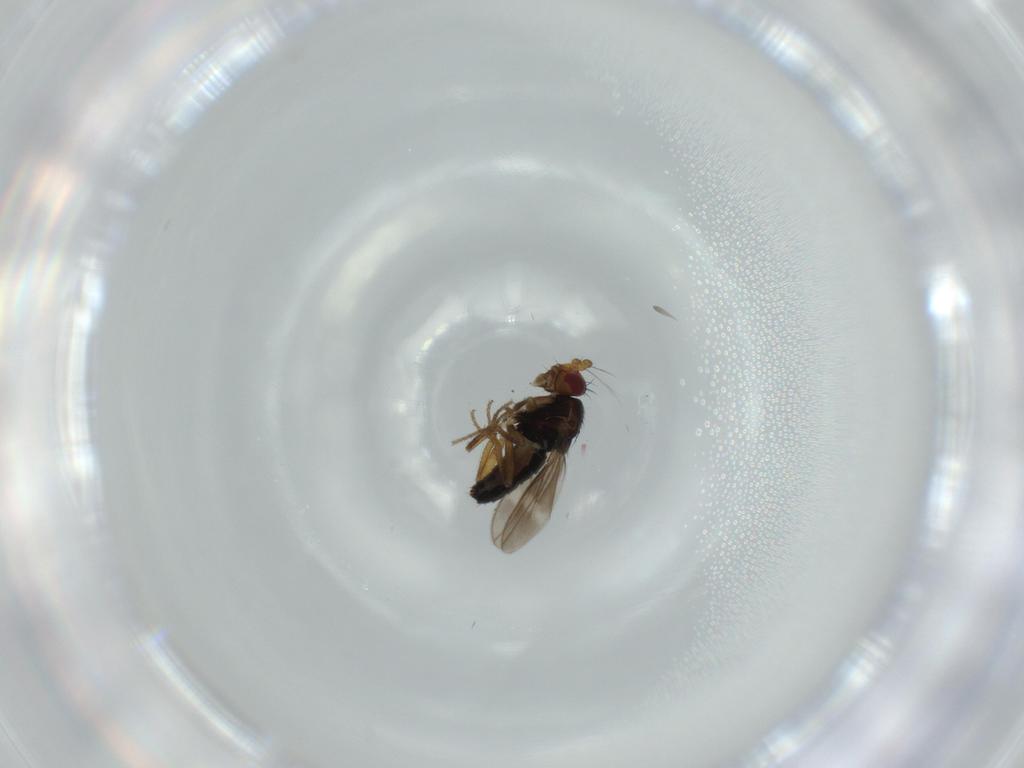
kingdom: Animalia
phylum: Arthropoda
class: Insecta
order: Diptera
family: Sphaeroceridae
